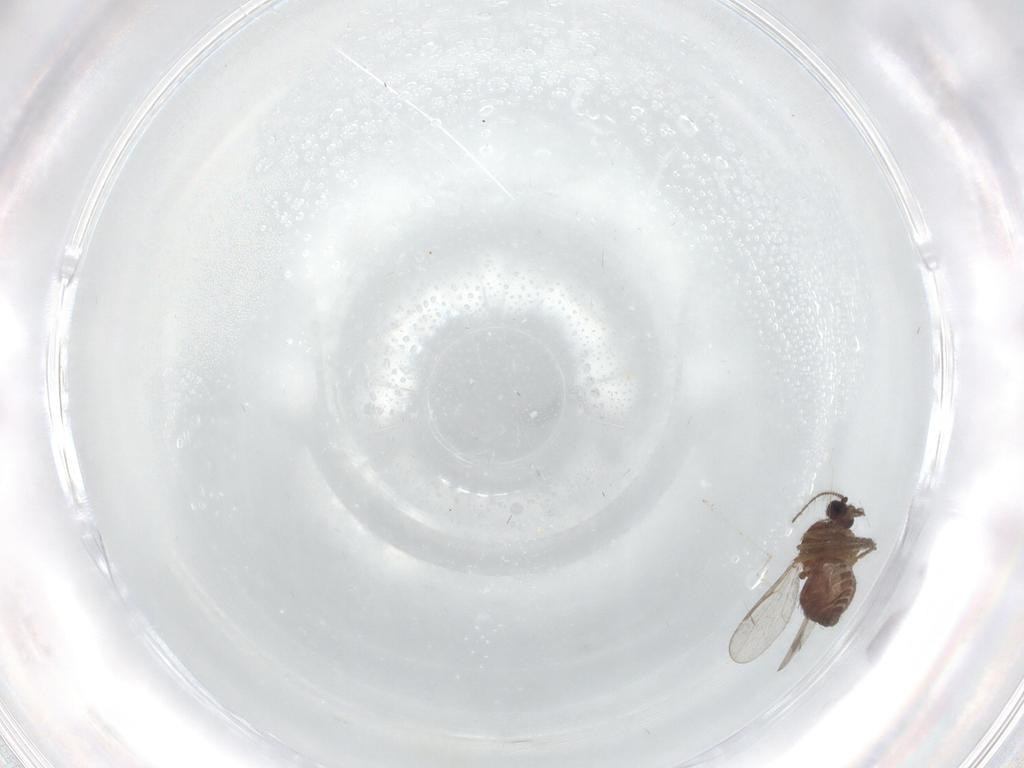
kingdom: Animalia
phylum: Arthropoda
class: Insecta
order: Diptera
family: Ceratopogonidae
